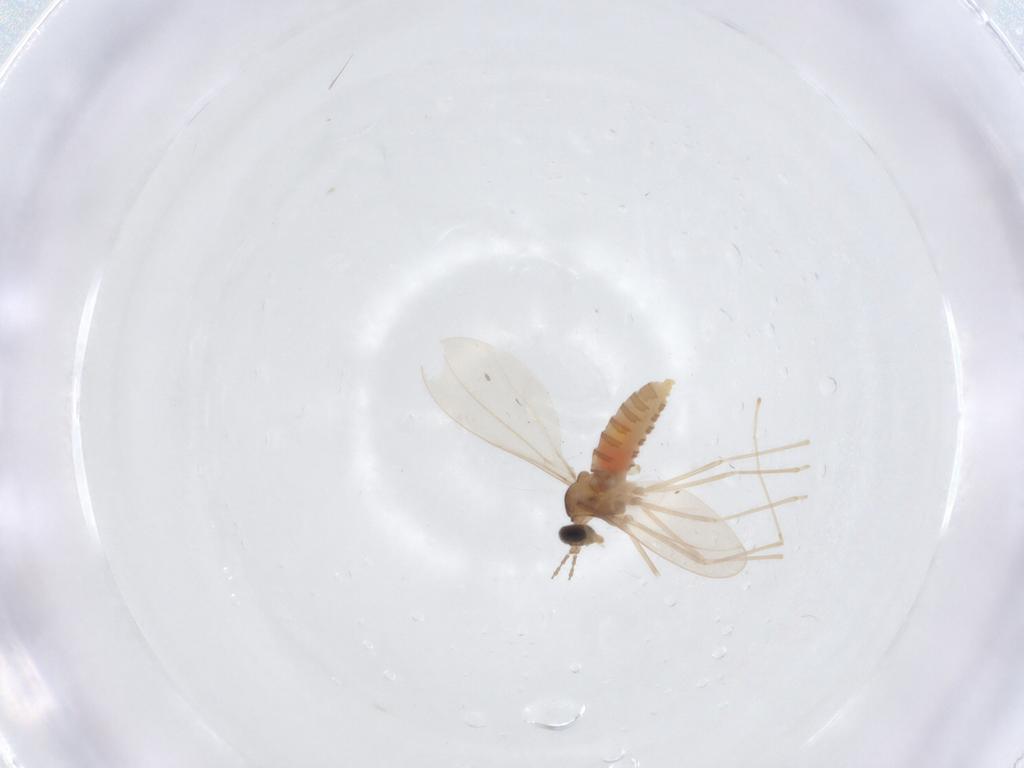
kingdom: Animalia
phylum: Arthropoda
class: Insecta
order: Diptera
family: Cecidomyiidae
